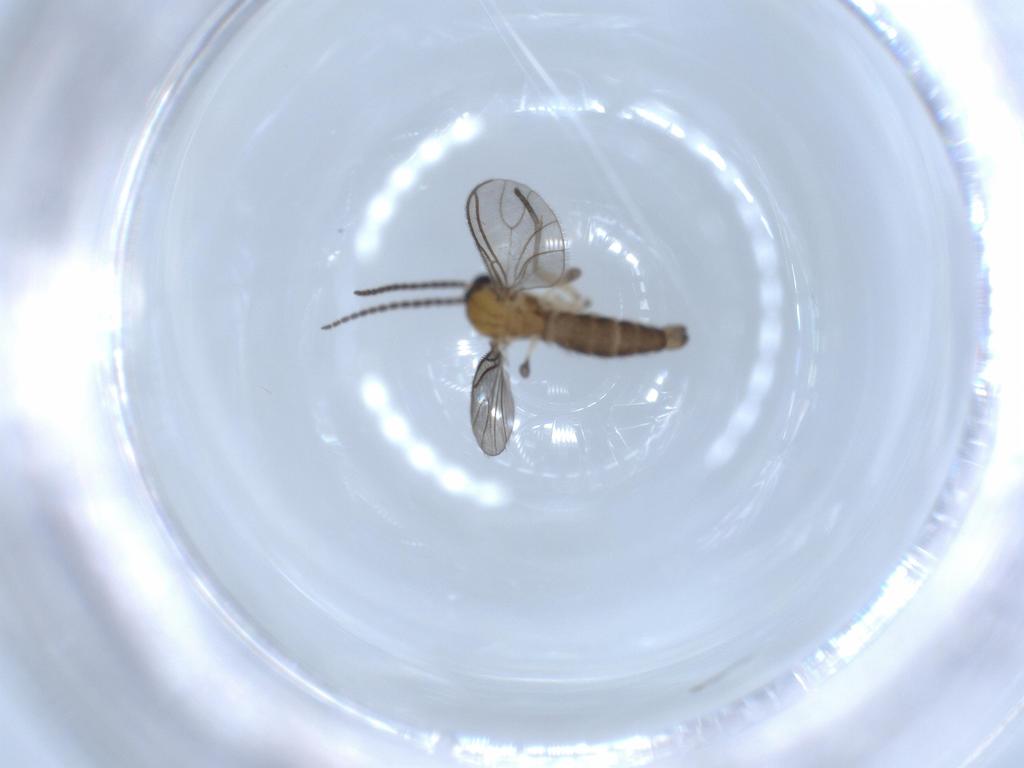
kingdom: Animalia
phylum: Arthropoda
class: Insecta
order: Diptera
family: Sciaridae
